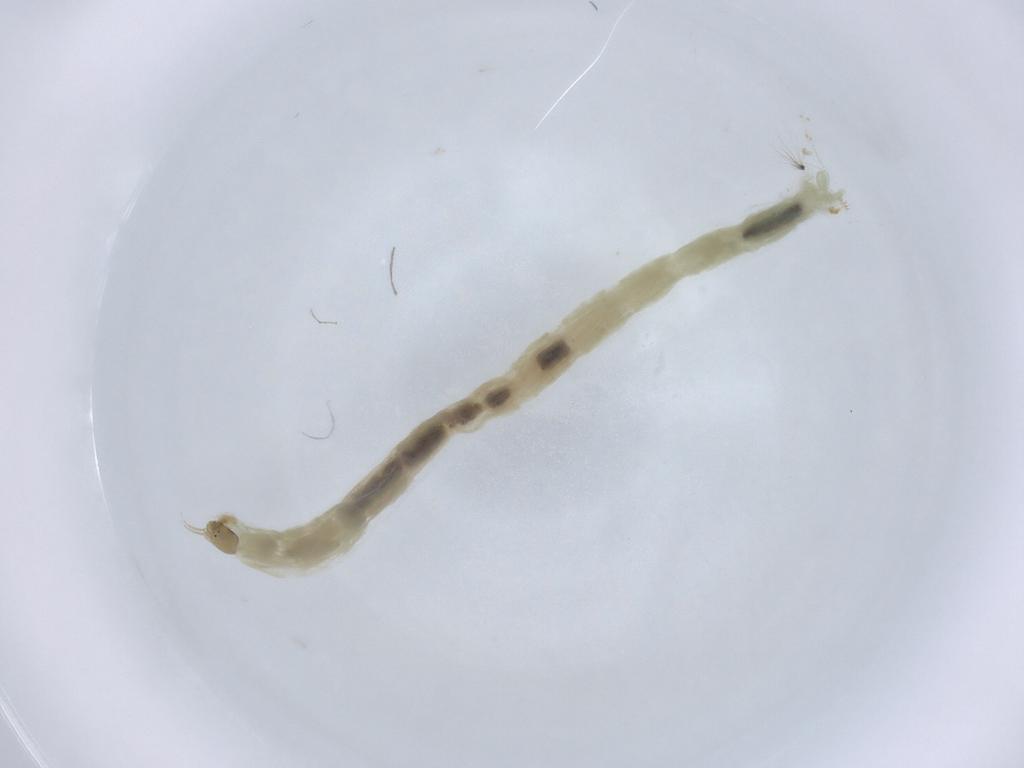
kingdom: Animalia
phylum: Arthropoda
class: Insecta
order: Diptera
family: Chironomidae
